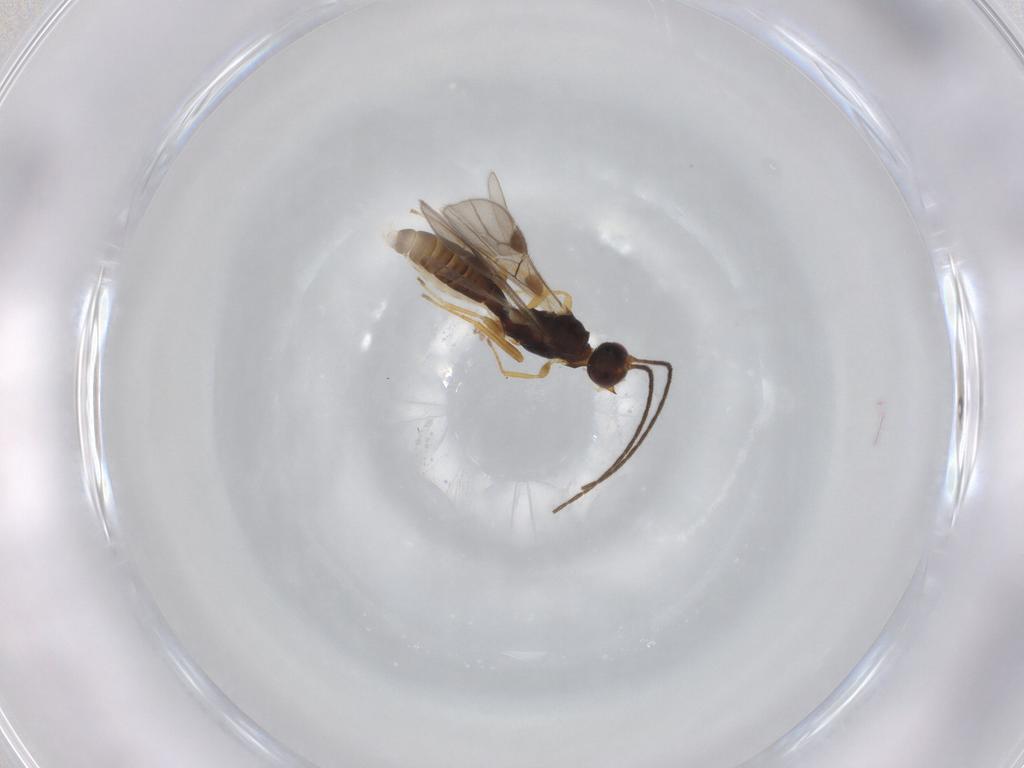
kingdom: Animalia
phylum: Arthropoda
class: Insecta
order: Hymenoptera
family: Braconidae
